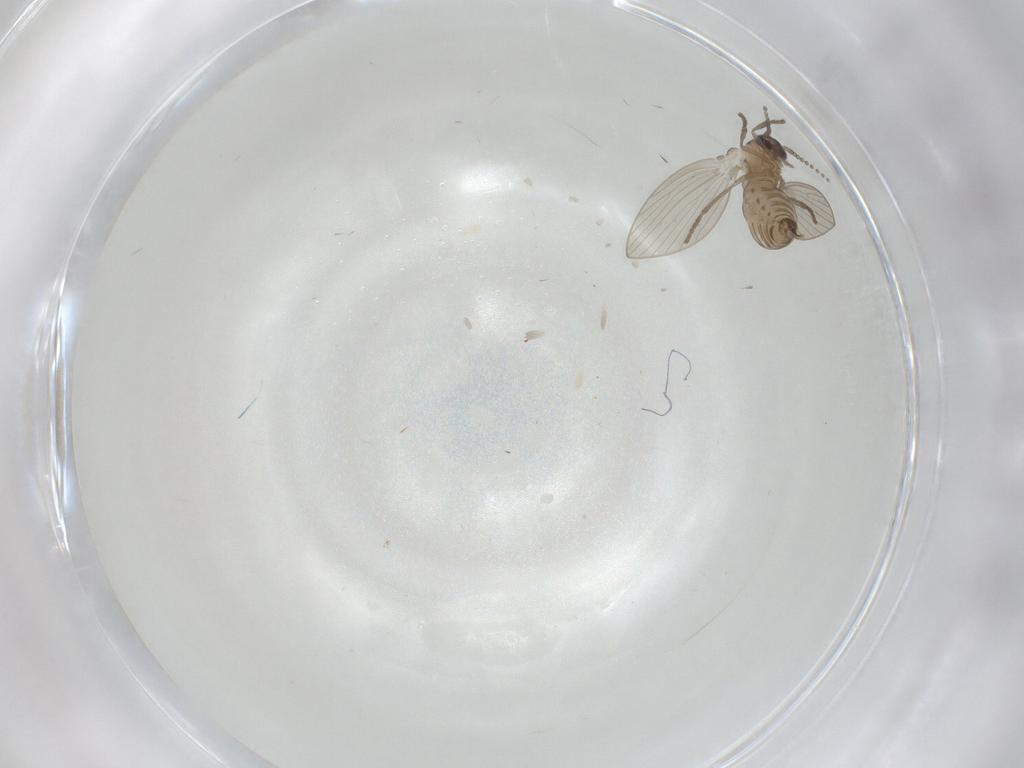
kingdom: Animalia
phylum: Arthropoda
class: Insecta
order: Diptera
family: Psychodidae
